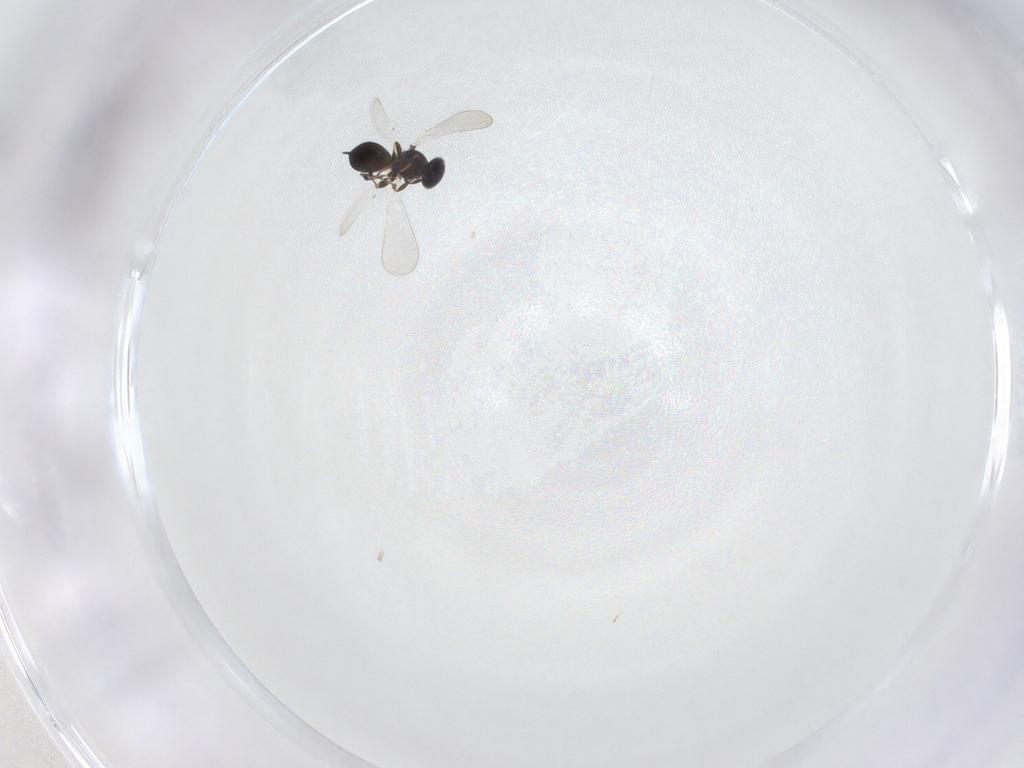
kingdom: Animalia
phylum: Arthropoda
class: Insecta
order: Hymenoptera
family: Platygastridae
